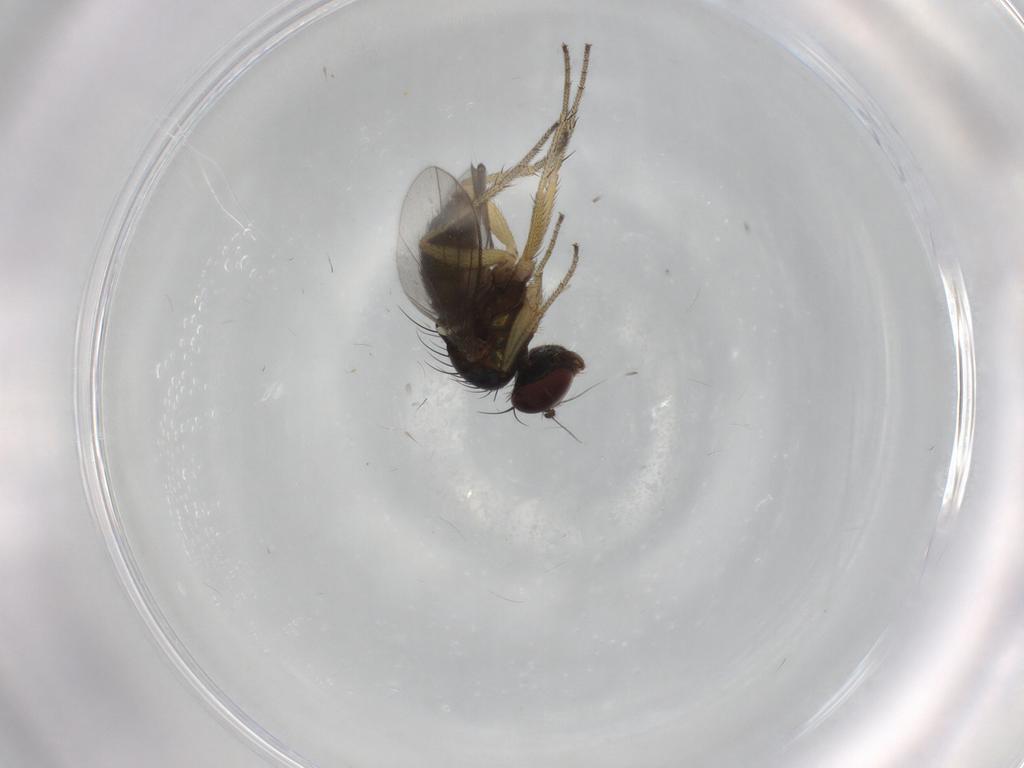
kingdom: Animalia
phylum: Arthropoda
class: Insecta
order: Diptera
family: Dolichopodidae
